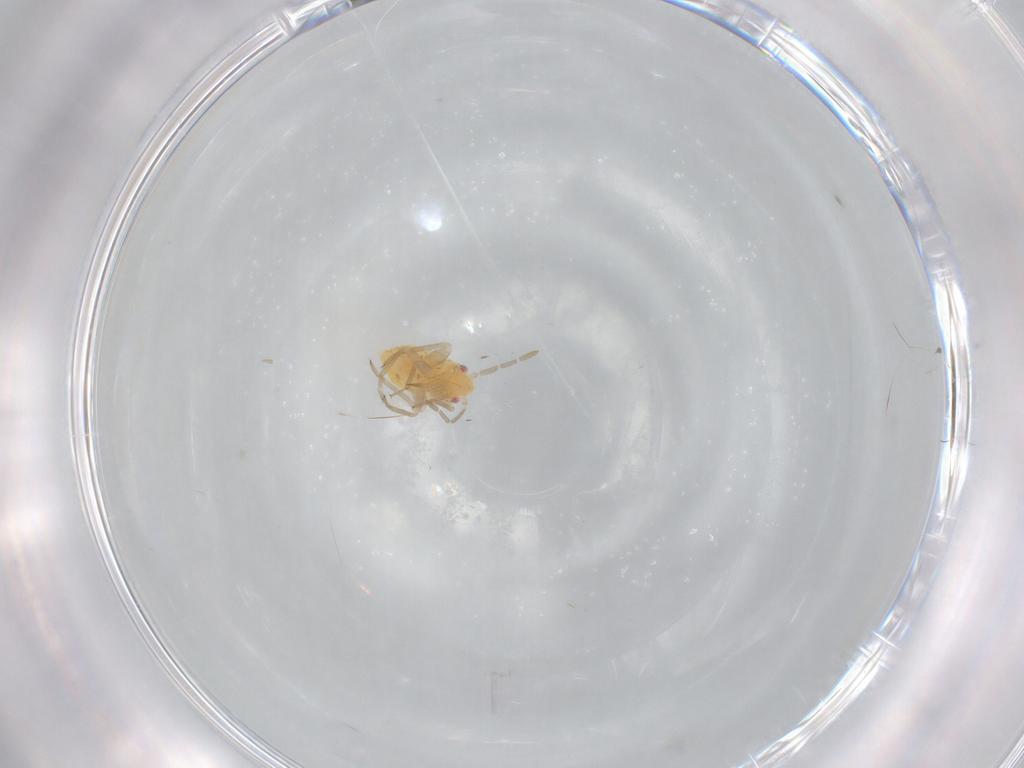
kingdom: Animalia
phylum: Arthropoda
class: Insecta
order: Hemiptera
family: Miridae
